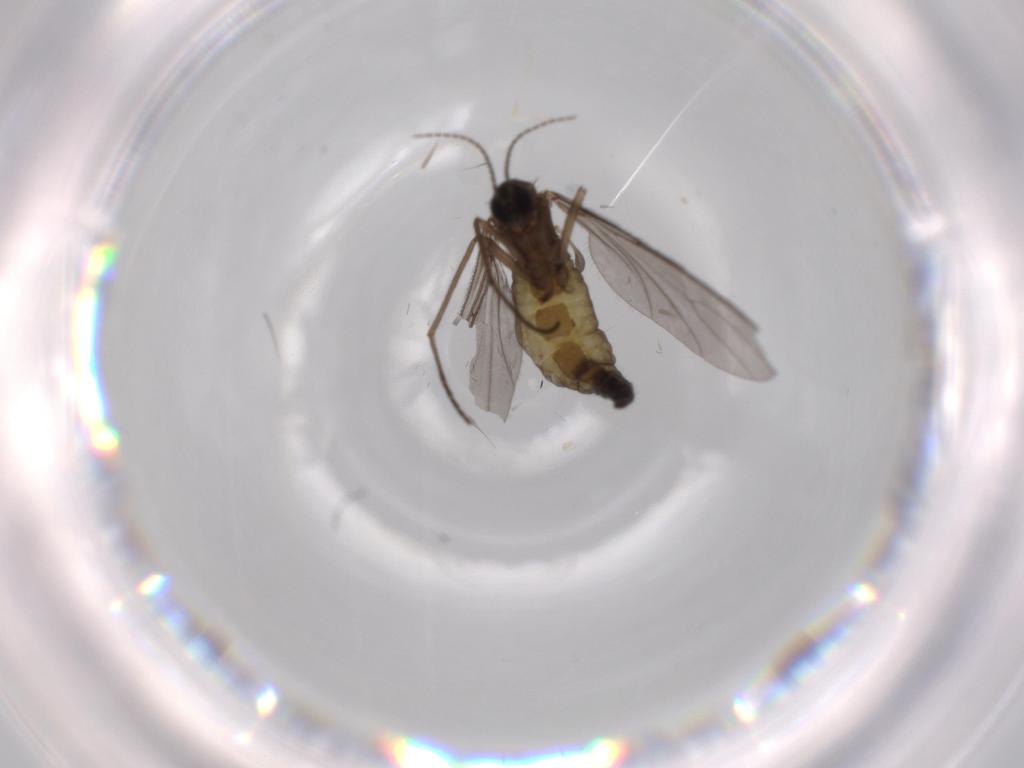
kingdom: Animalia
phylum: Arthropoda
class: Insecta
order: Diptera
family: Sciaridae
